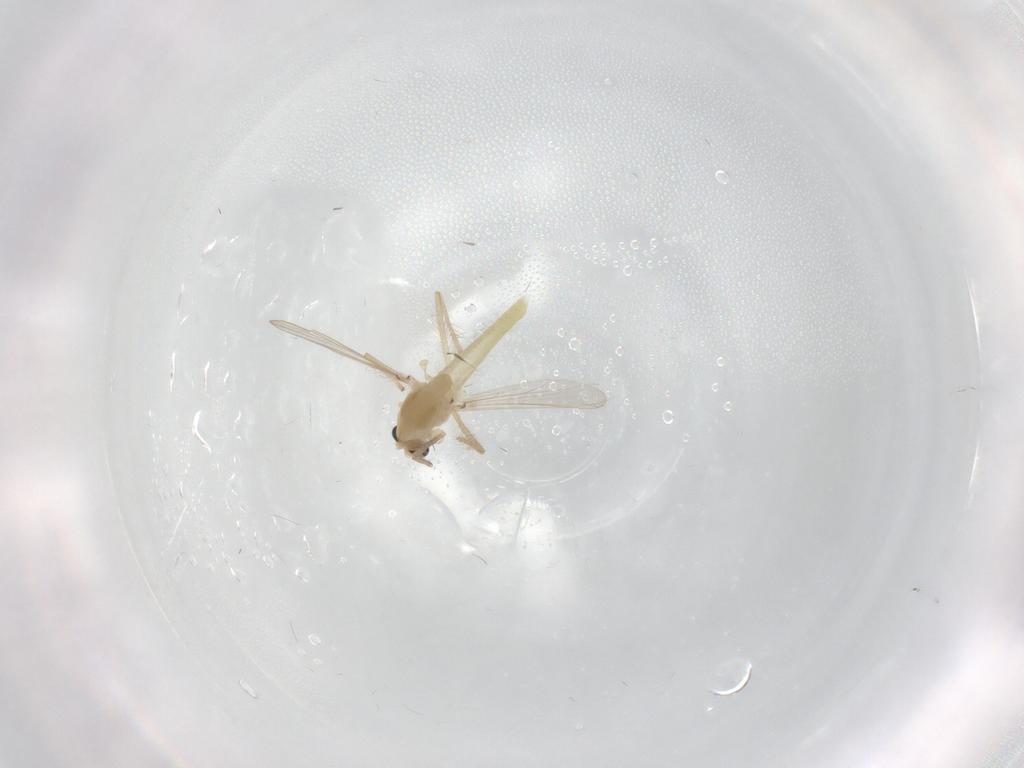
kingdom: Animalia
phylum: Arthropoda
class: Insecta
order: Diptera
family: Chironomidae
